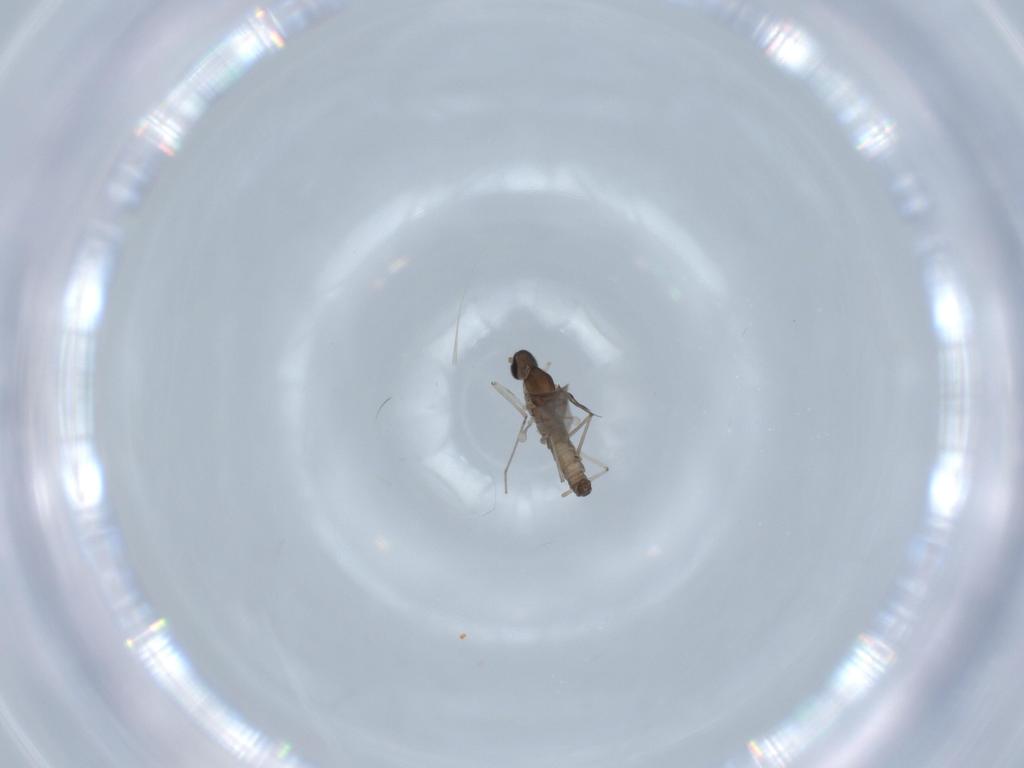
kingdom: Animalia
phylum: Arthropoda
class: Insecta
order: Diptera
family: Cecidomyiidae
